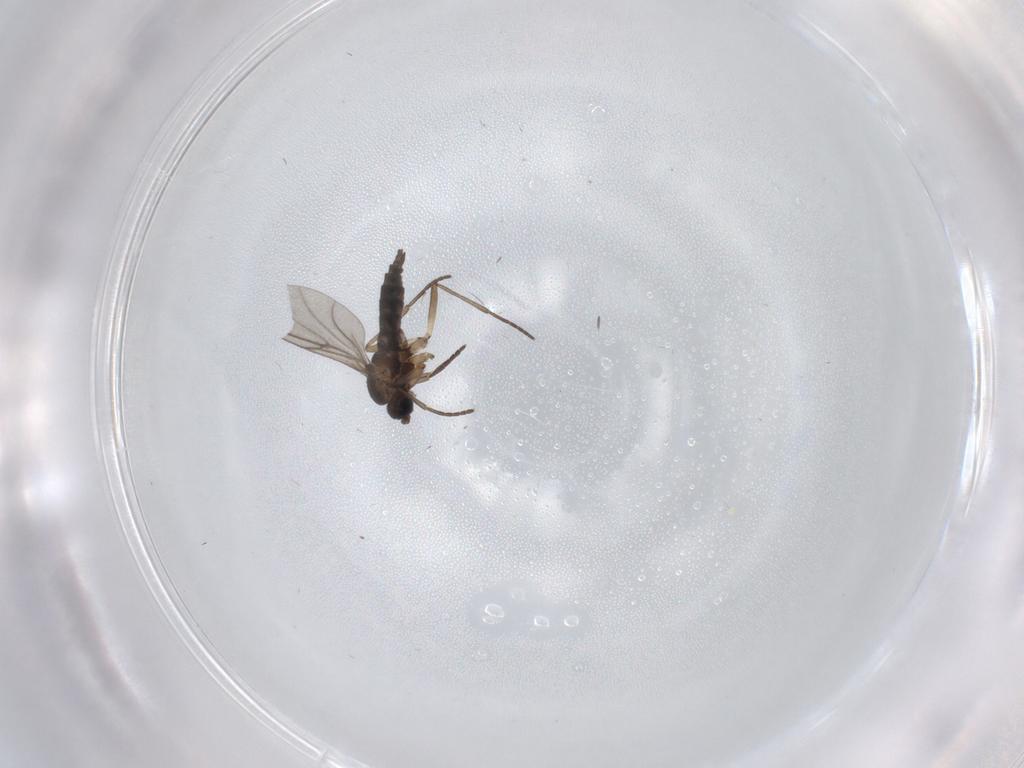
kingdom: Animalia
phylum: Arthropoda
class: Insecta
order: Diptera
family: Sciaridae
